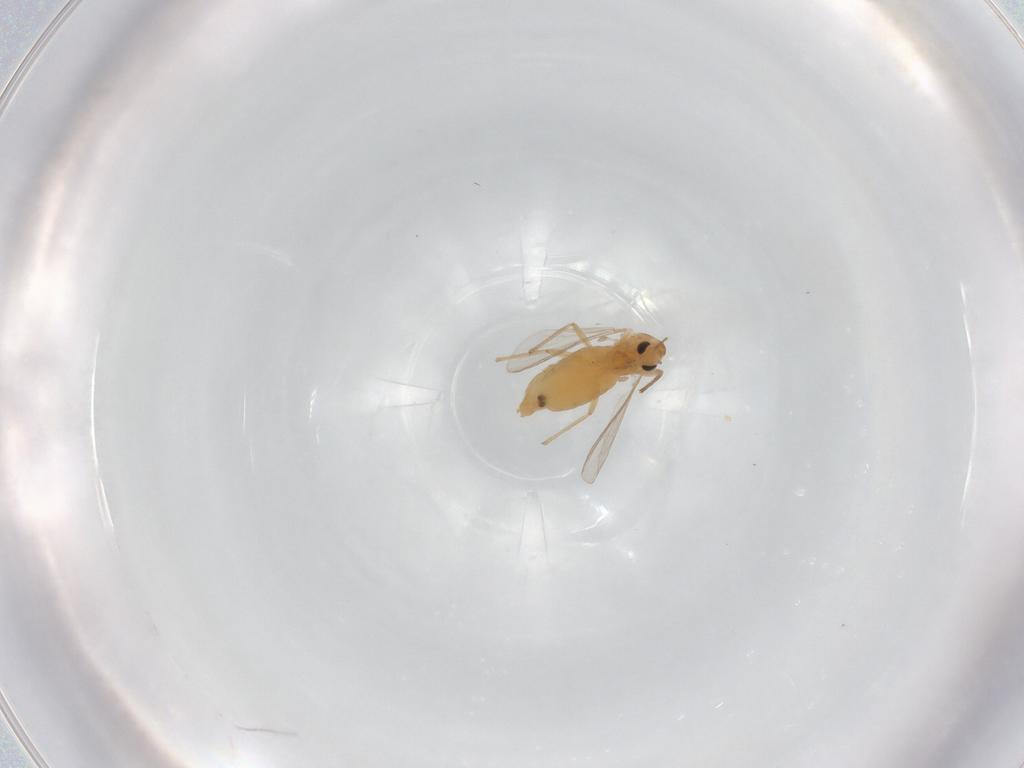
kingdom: Animalia
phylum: Arthropoda
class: Insecta
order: Diptera
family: Chironomidae
